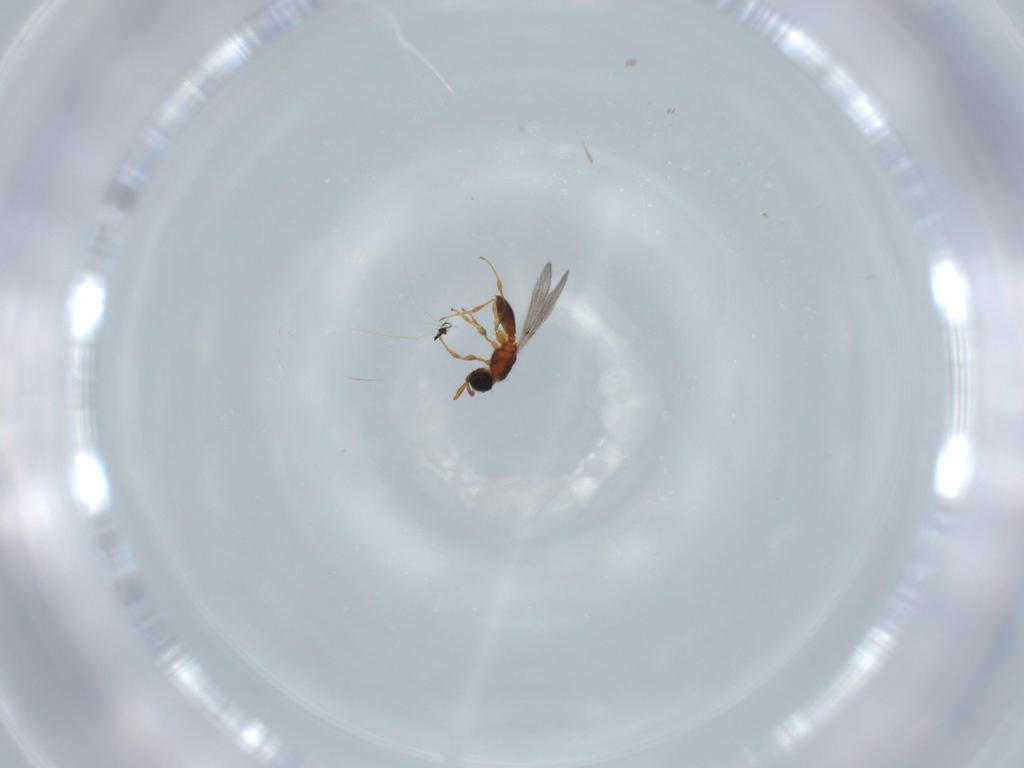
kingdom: Animalia
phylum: Arthropoda
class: Insecta
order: Hymenoptera
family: Diapriidae
